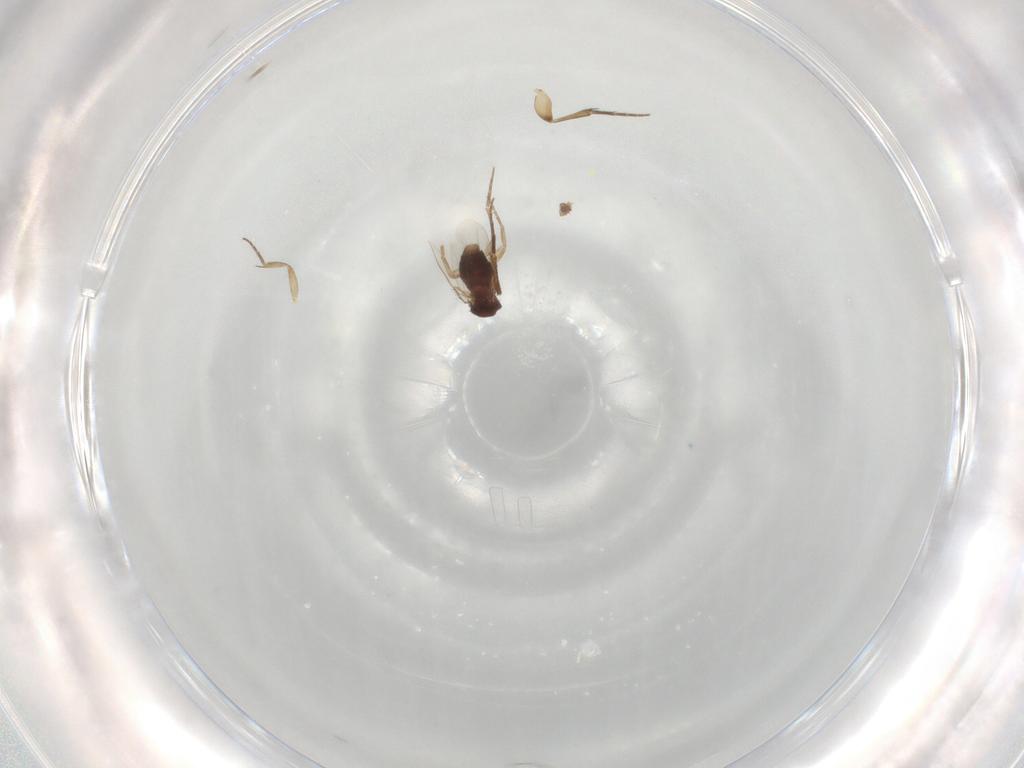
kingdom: Animalia
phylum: Arthropoda
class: Insecta
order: Diptera
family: Phoridae
